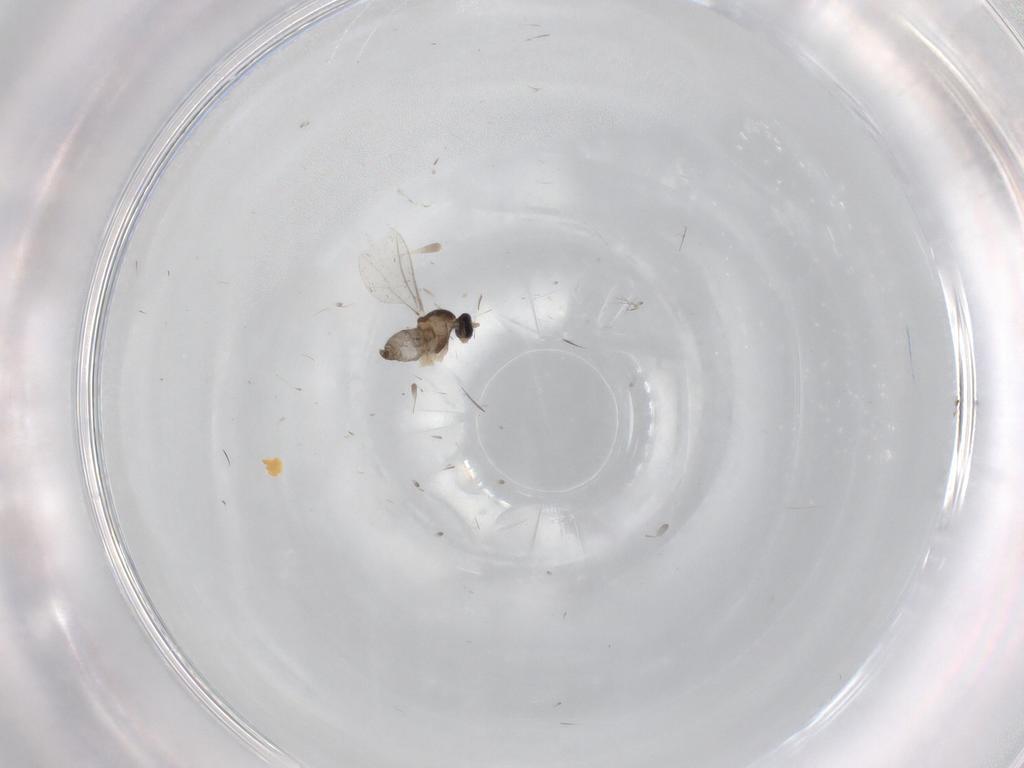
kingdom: Animalia
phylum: Arthropoda
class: Insecta
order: Diptera
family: Cecidomyiidae
